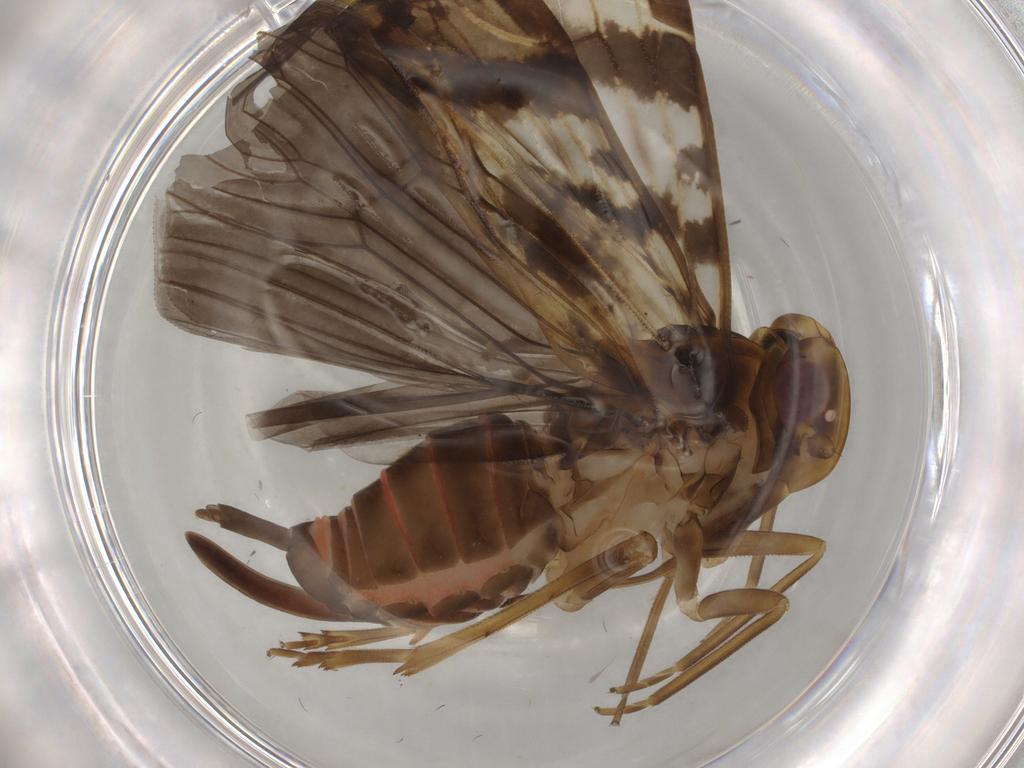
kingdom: Animalia
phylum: Arthropoda
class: Insecta
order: Hemiptera
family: Cixiidae
